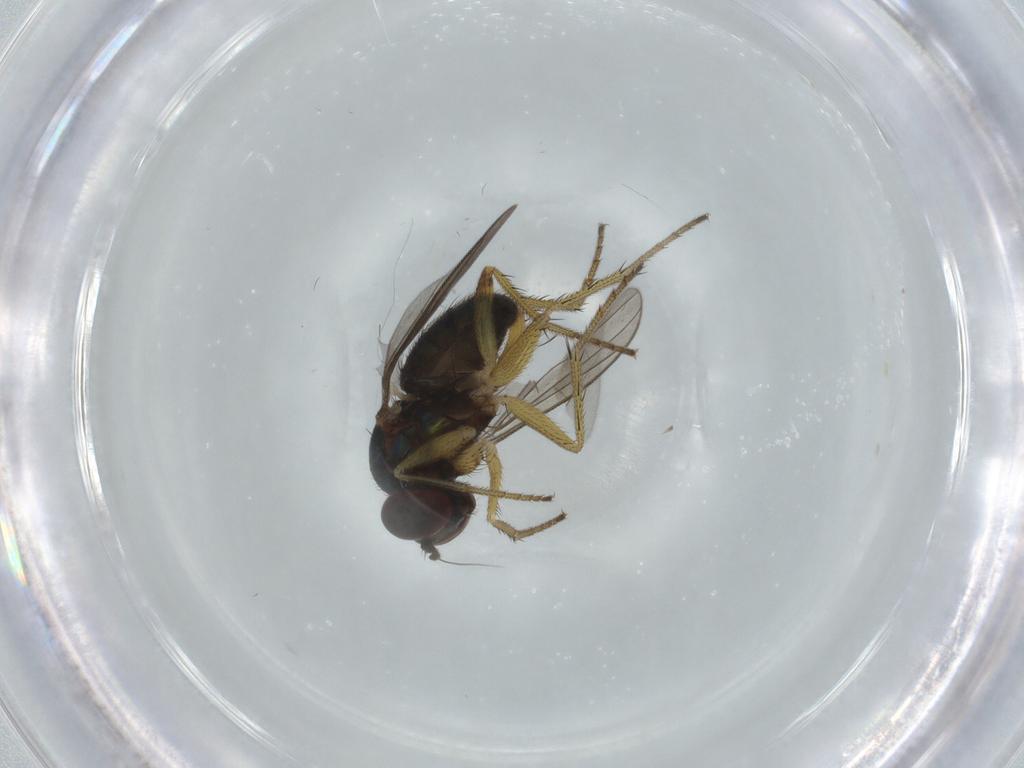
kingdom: Animalia
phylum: Arthropoda
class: Insecta
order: Diptera
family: Dolichopodidae
